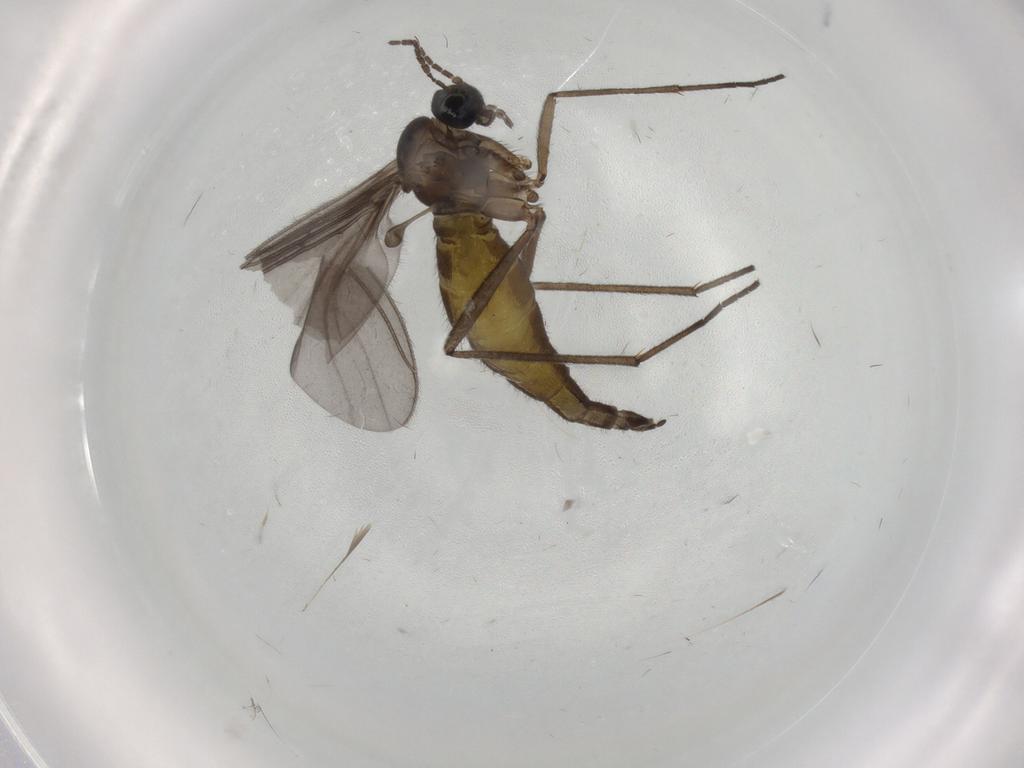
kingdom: Animalia
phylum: Arthropoda
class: Insecta
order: Diptera
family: Sciaridae
